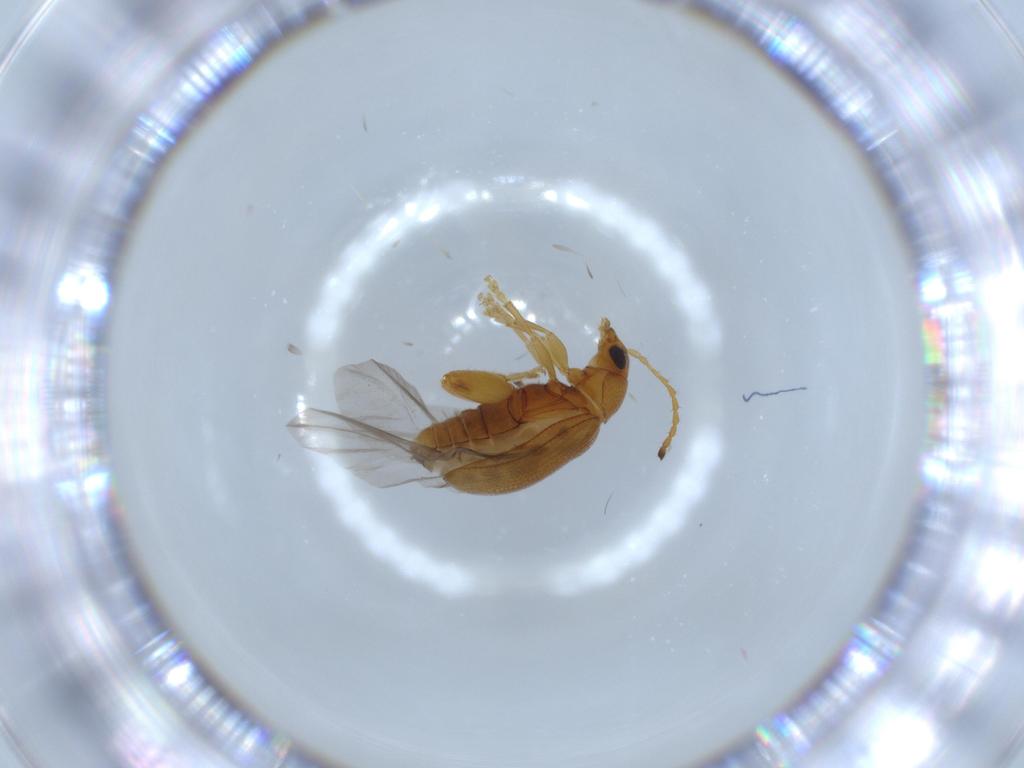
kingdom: Animalia
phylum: Arthropoda
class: Insecta
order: Coleoptera
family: Chrysomelidae
